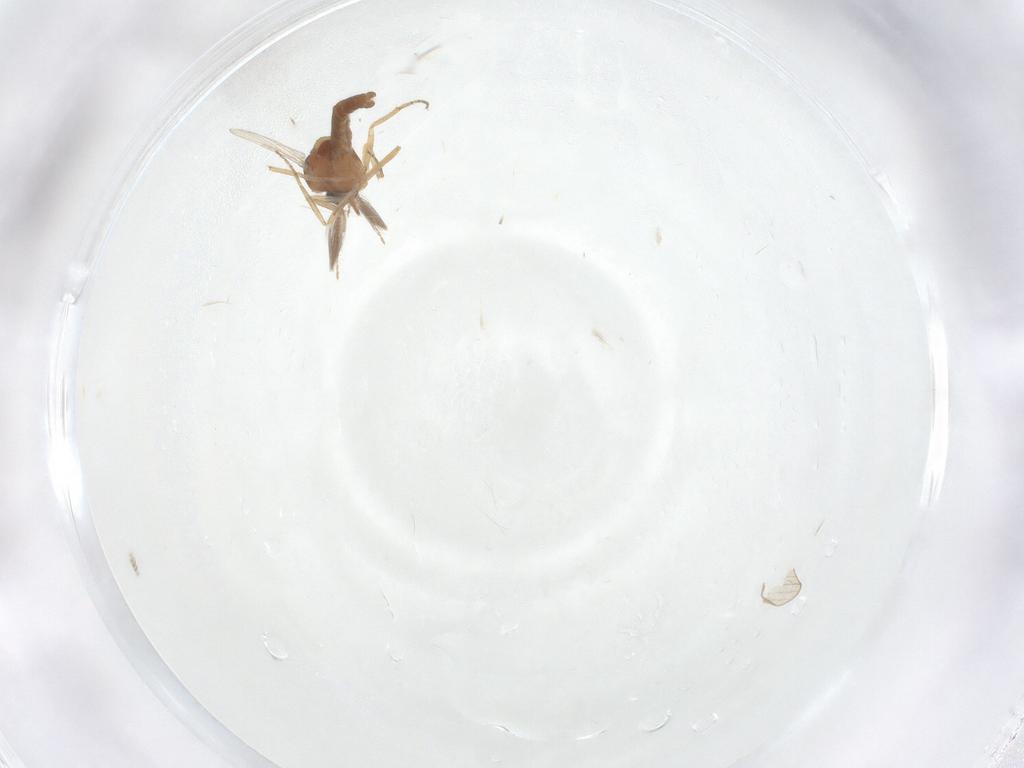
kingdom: Animalia
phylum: Arthropoda
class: Insecta
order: Diptera
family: Ceratopogonidae
